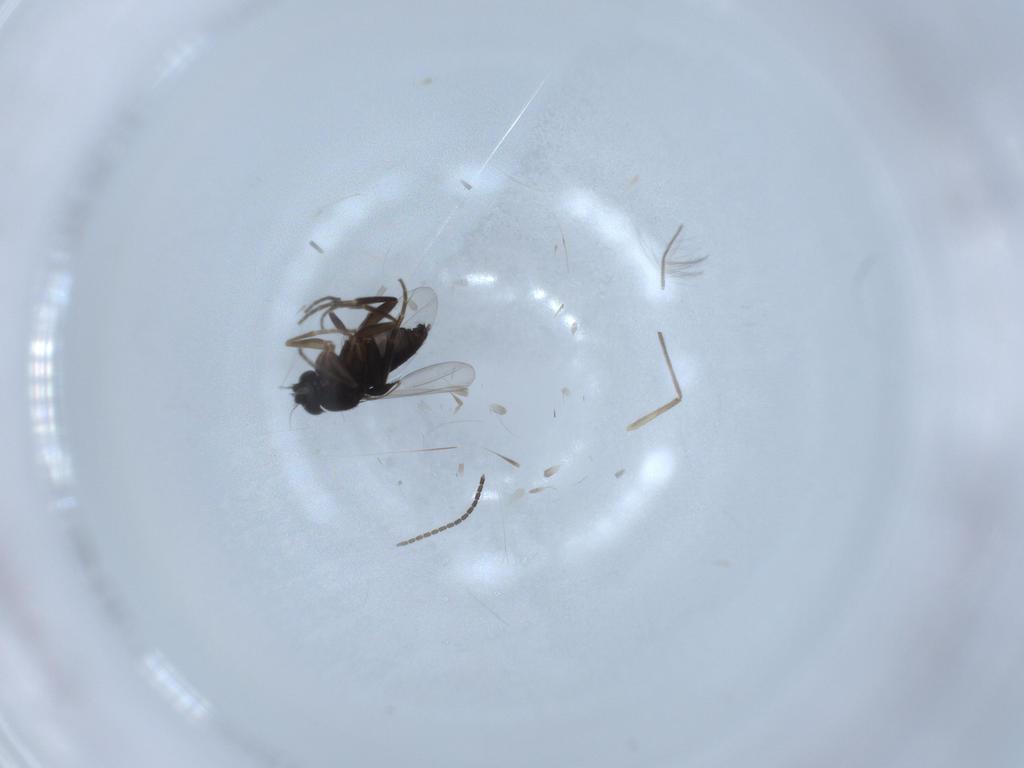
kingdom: Animalia
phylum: Arthropoda
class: Insecta
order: Diptera
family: Sciaridae
